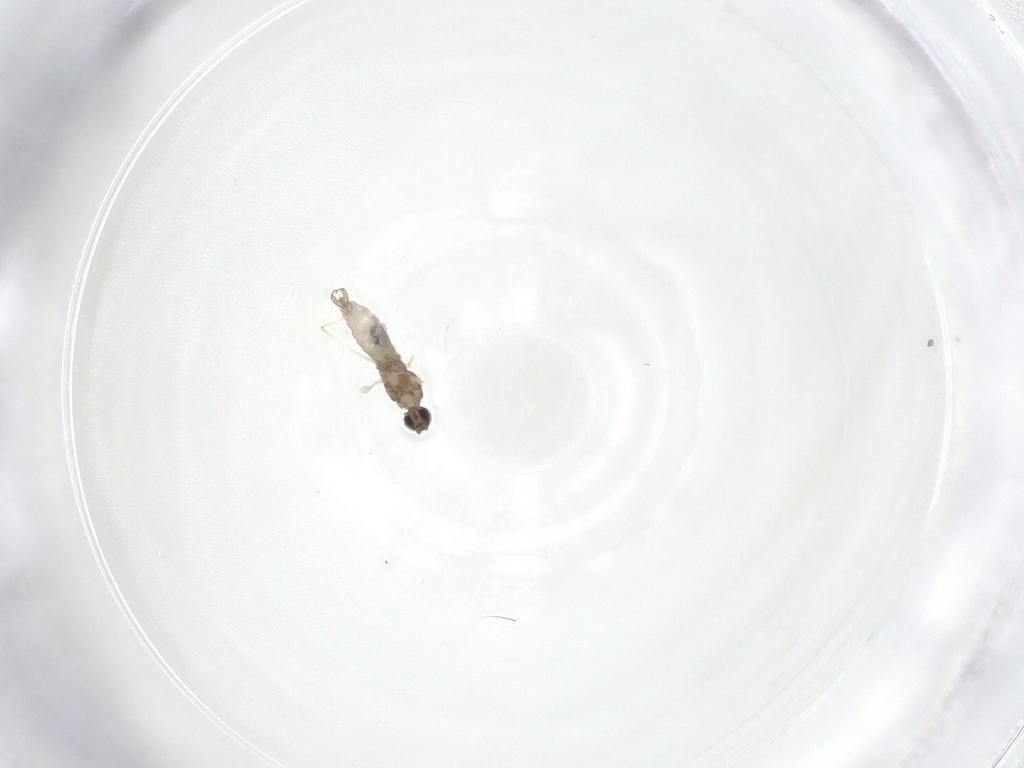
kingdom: Animalia
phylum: Arthropoda
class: Insecta
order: Diptera
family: Cecidomyiidae
